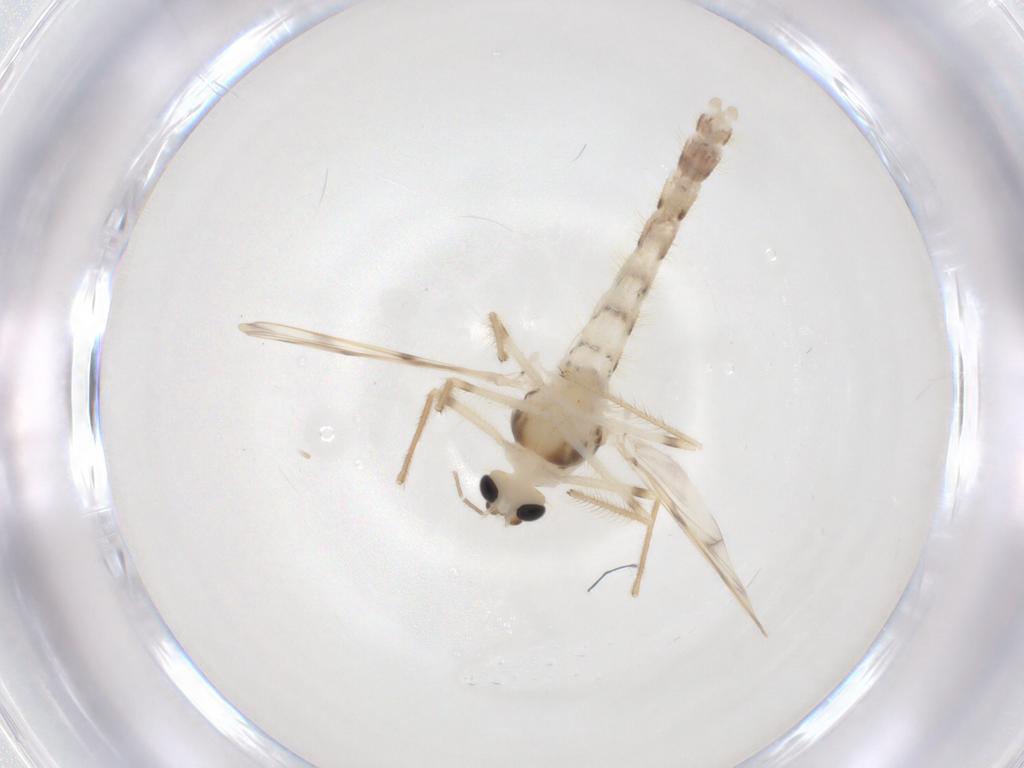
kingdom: Animalia
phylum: Arthropoda
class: Insecta
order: Diptera
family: Chironomidae
